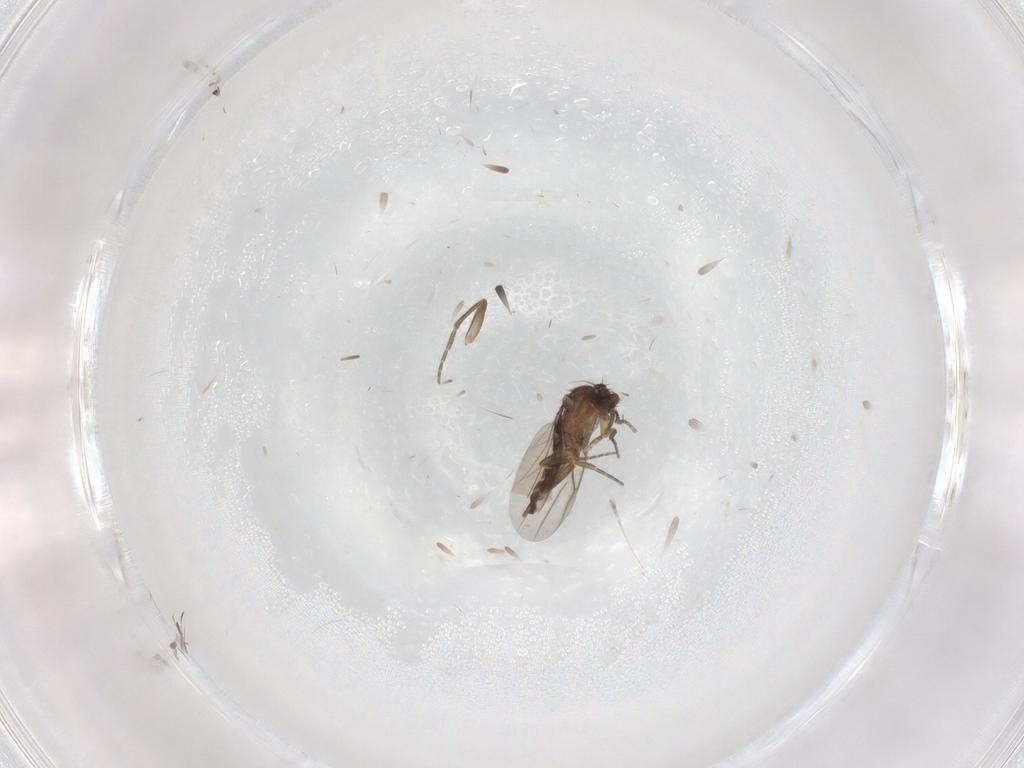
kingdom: Animalia
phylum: Arthropoda
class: Insecta
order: Diptera
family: Phoridae
